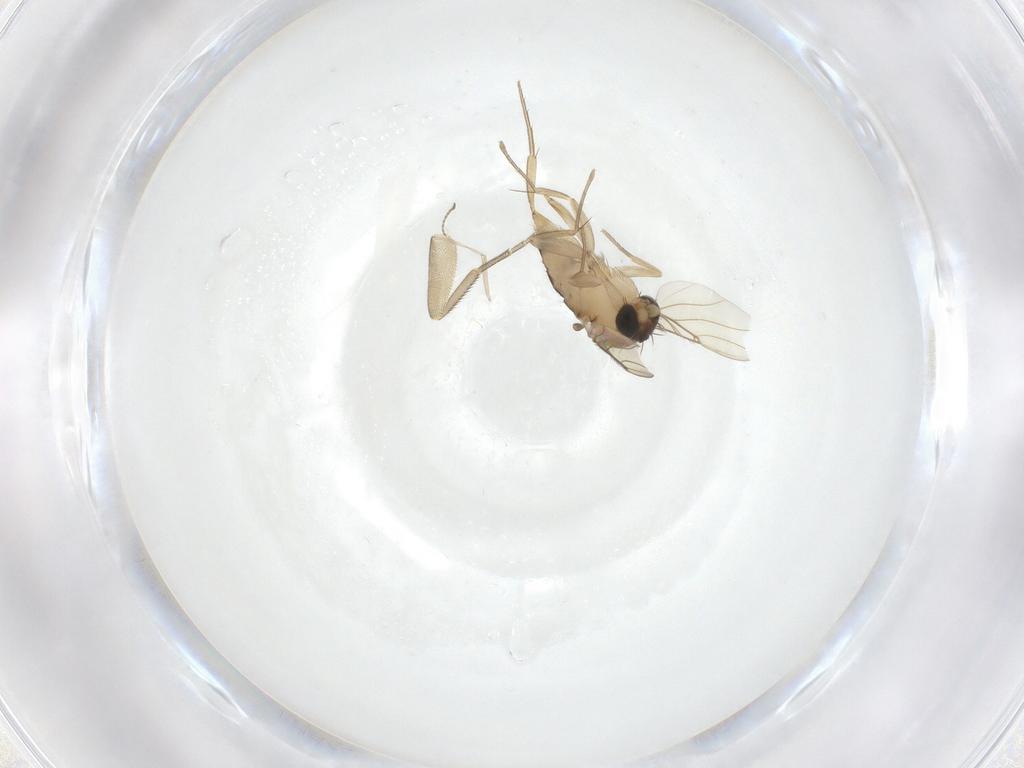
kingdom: Animalia
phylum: Arthropoda
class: Insecta
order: Diptera
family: Phoridae
